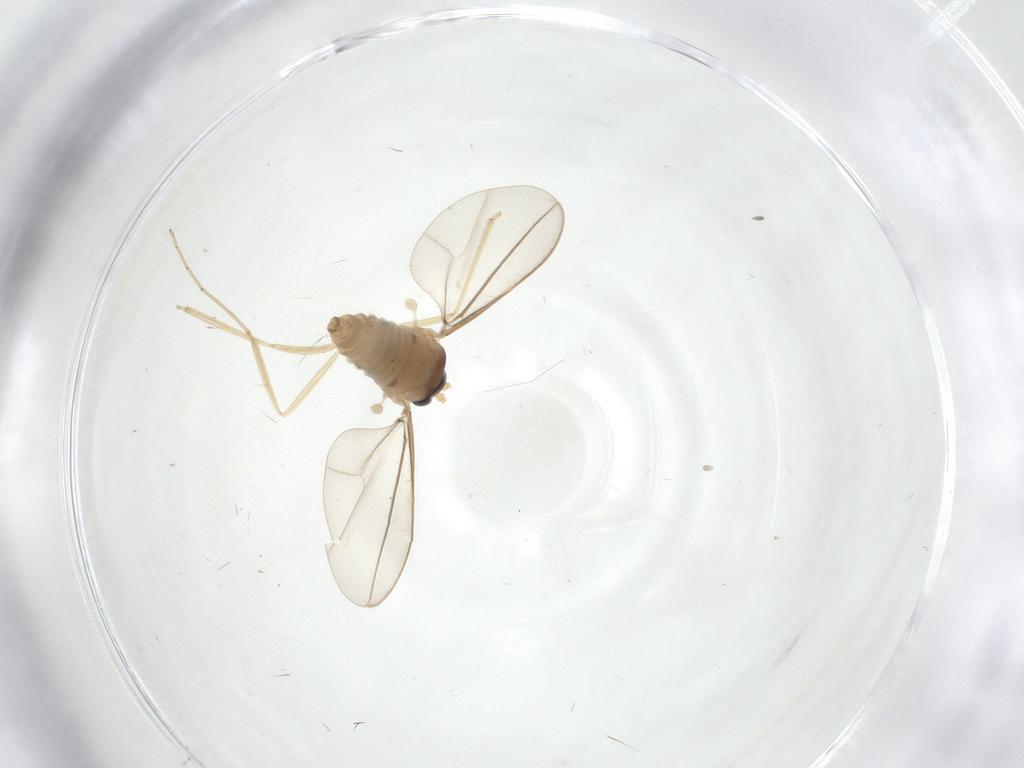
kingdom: Animalia
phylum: Arthropoda
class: Insecta
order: Diptera
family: Cecidomyiidae
